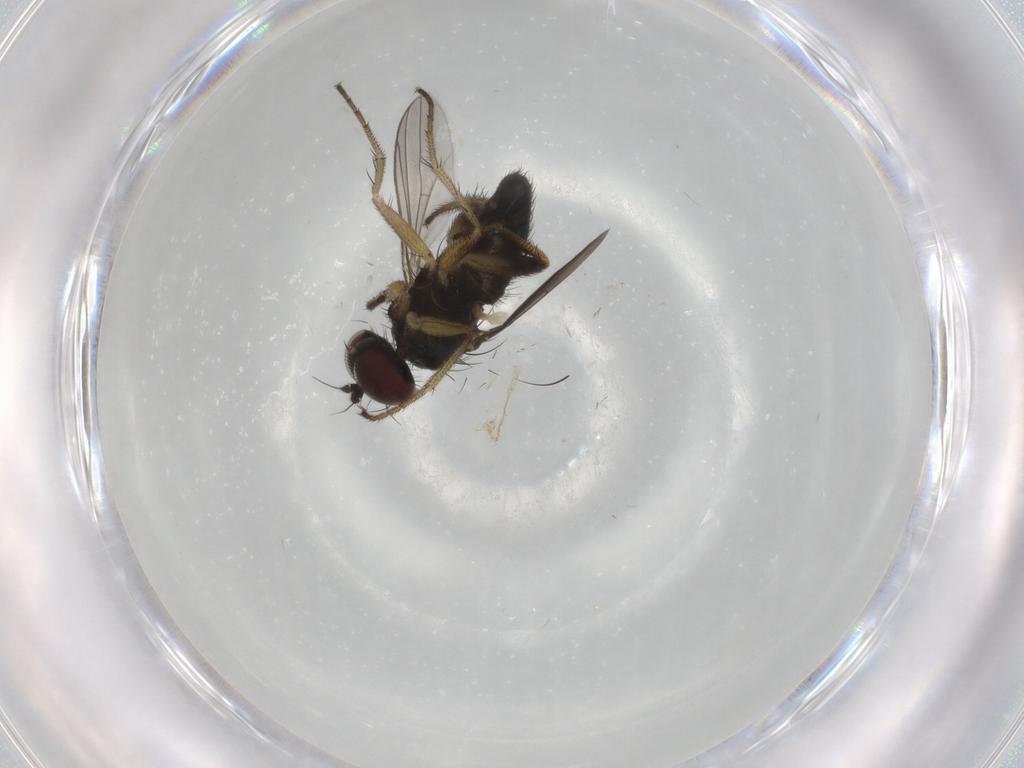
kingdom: Animalia
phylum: Arthropoda
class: Insecta
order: Diptera
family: Dolichopodidae
